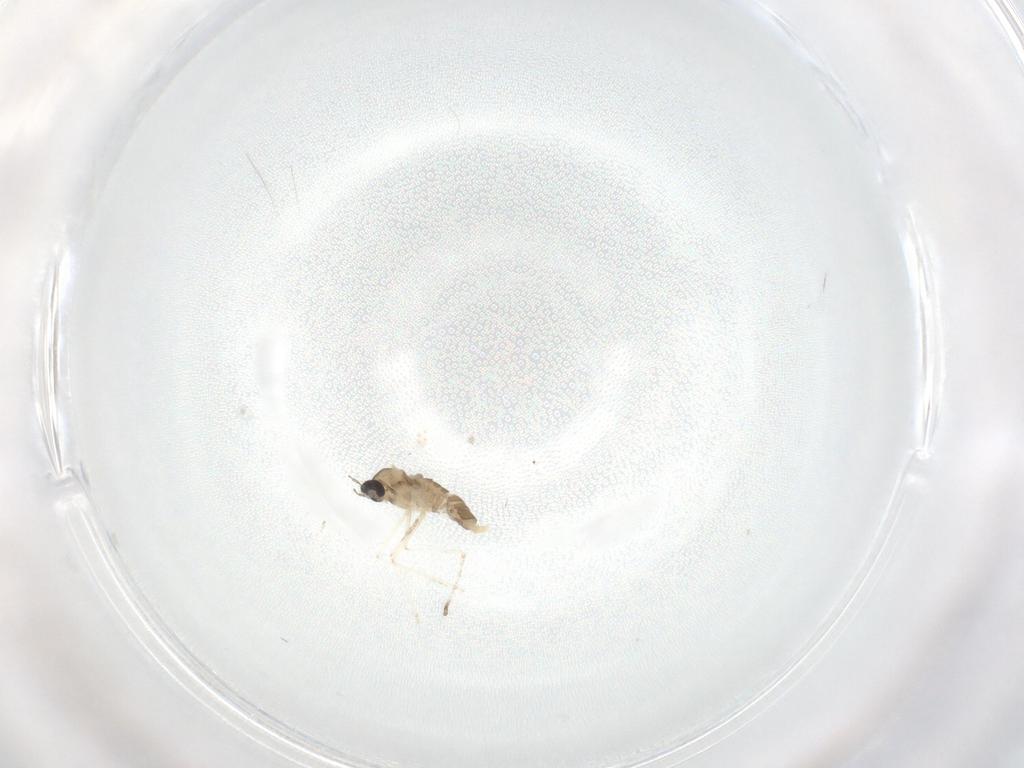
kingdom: Animalia
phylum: Arthropoda
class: Insecta
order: Diptera
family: Cecidomyiidae
